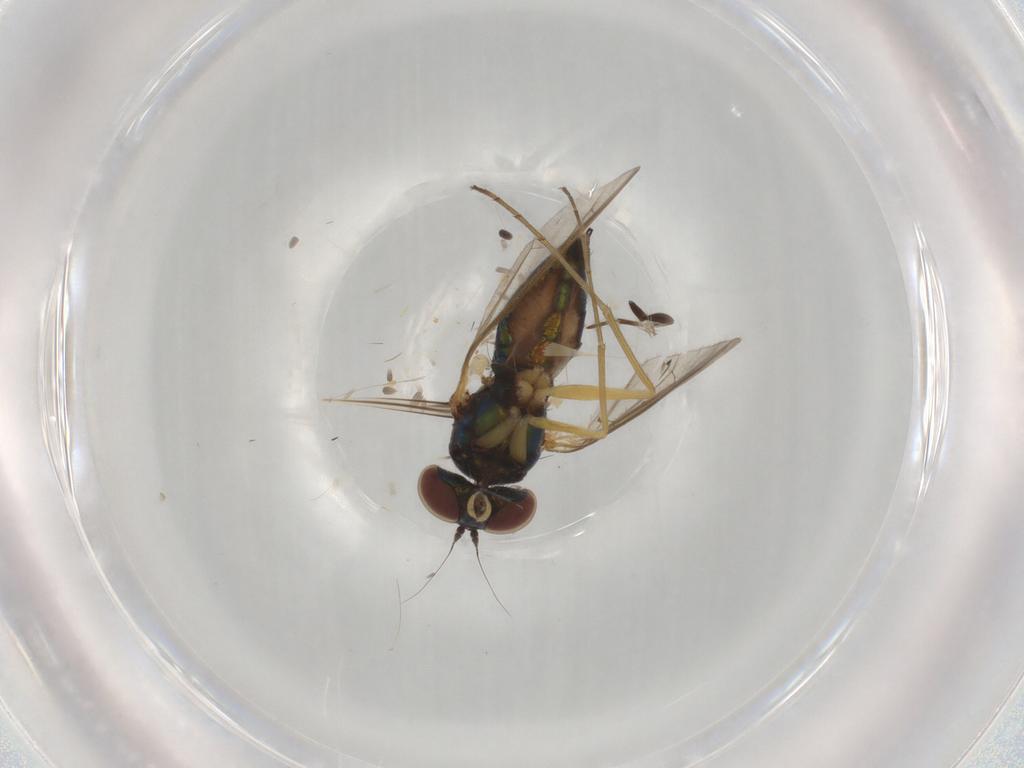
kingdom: Animalia
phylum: Arthropoda
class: Insecta
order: Diptera
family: Dolichopodidae
